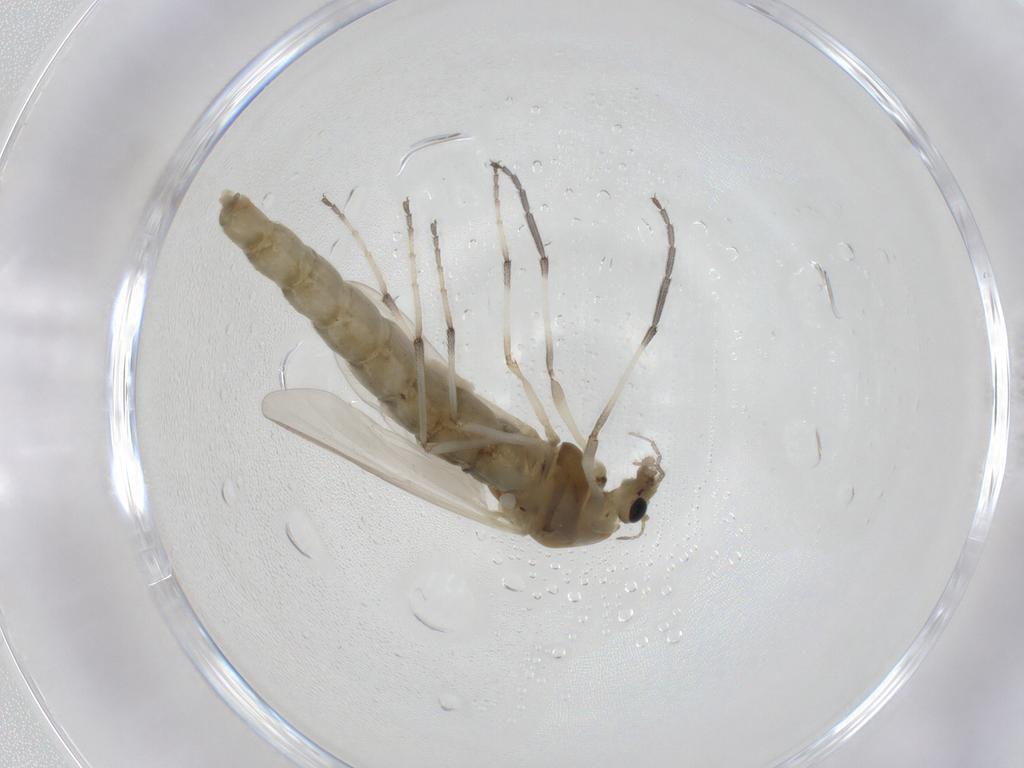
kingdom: Animalia
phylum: Arthropoda
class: Insecta
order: Diptera
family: Chironomidae
